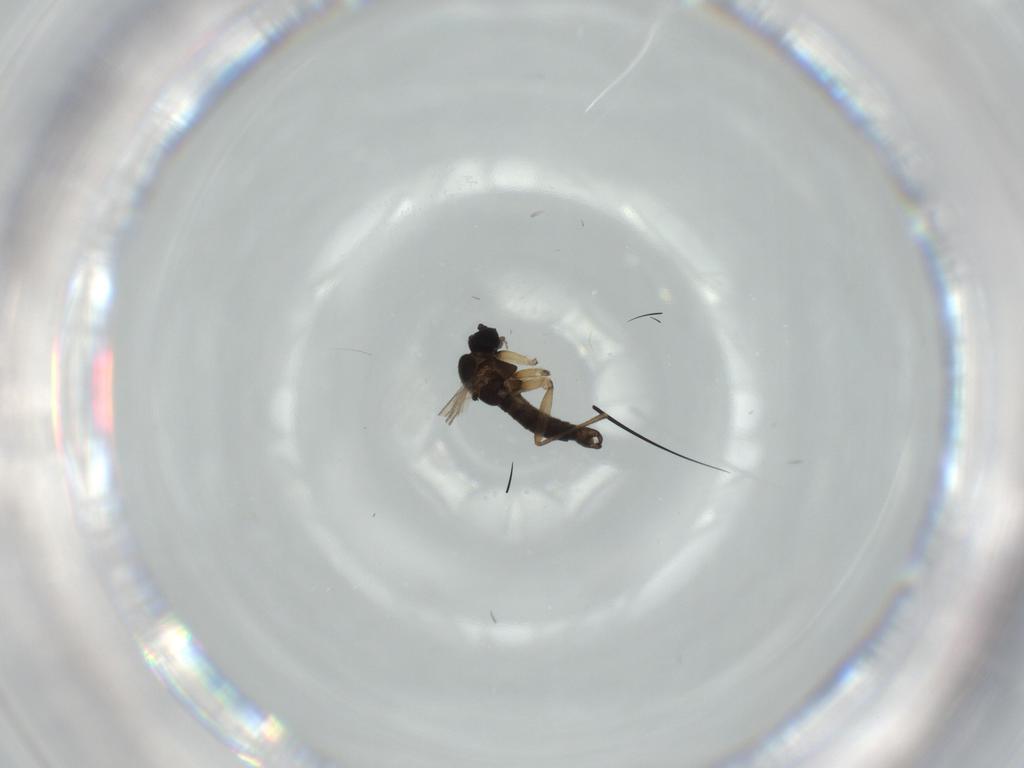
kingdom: Animalia
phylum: Arthropoda
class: Insecta
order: Diptera
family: Sciaridae
